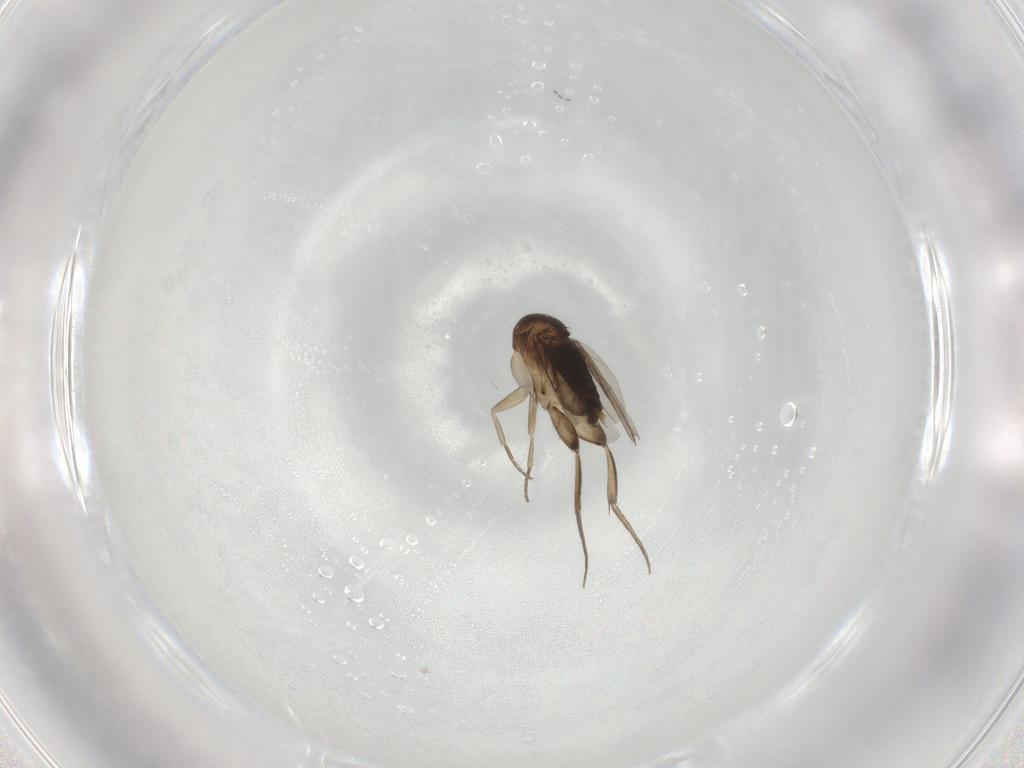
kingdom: Animalia
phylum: Arthropoda
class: Insecta
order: Diptera
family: Phoridae
